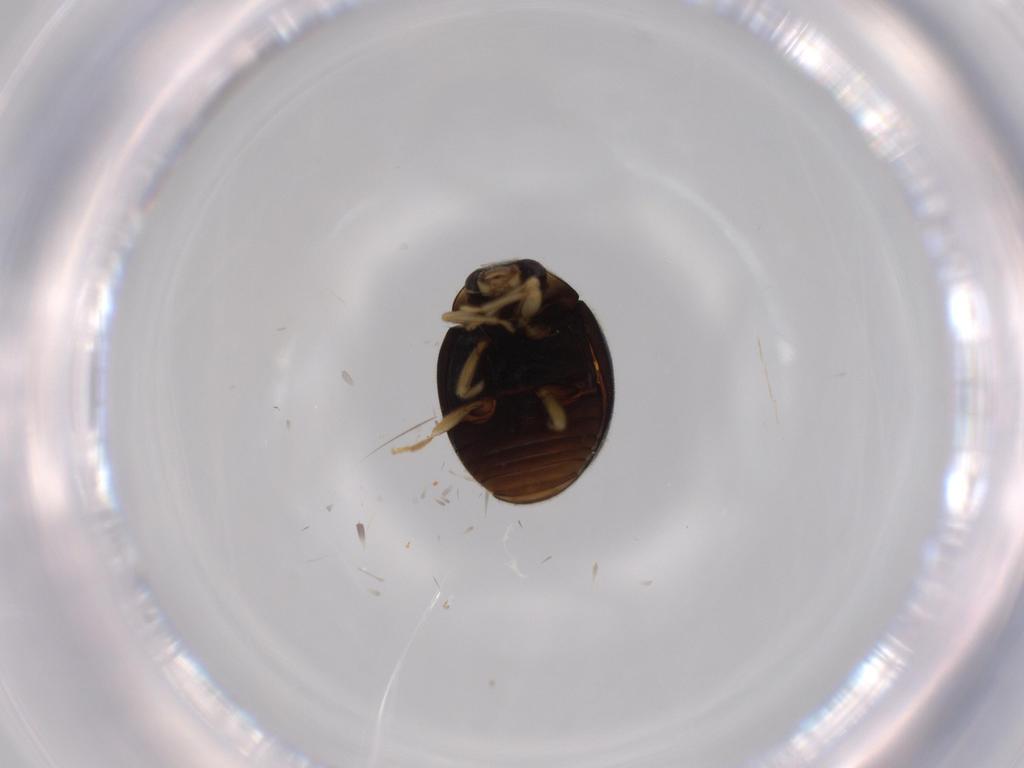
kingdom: Animalia
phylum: Arthropoda
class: Insecta
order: Coleoptera
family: Coccinellidae
